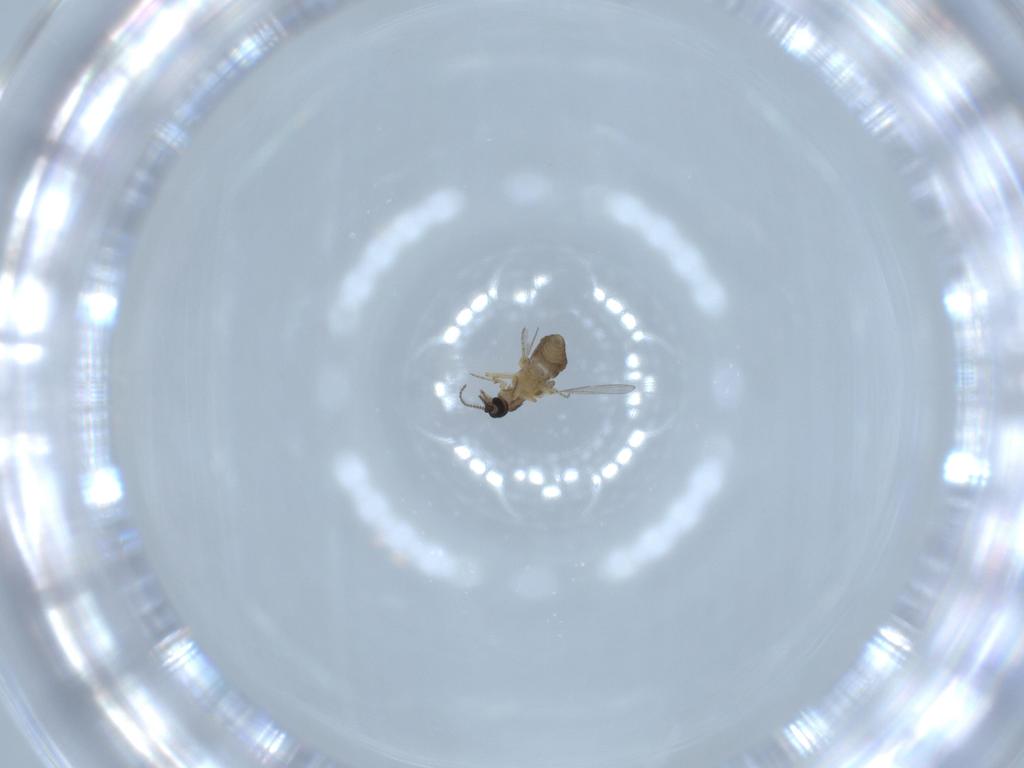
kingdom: Animalia
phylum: Arthropoda
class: Insecta
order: Diptera
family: Ceratopogonidae
